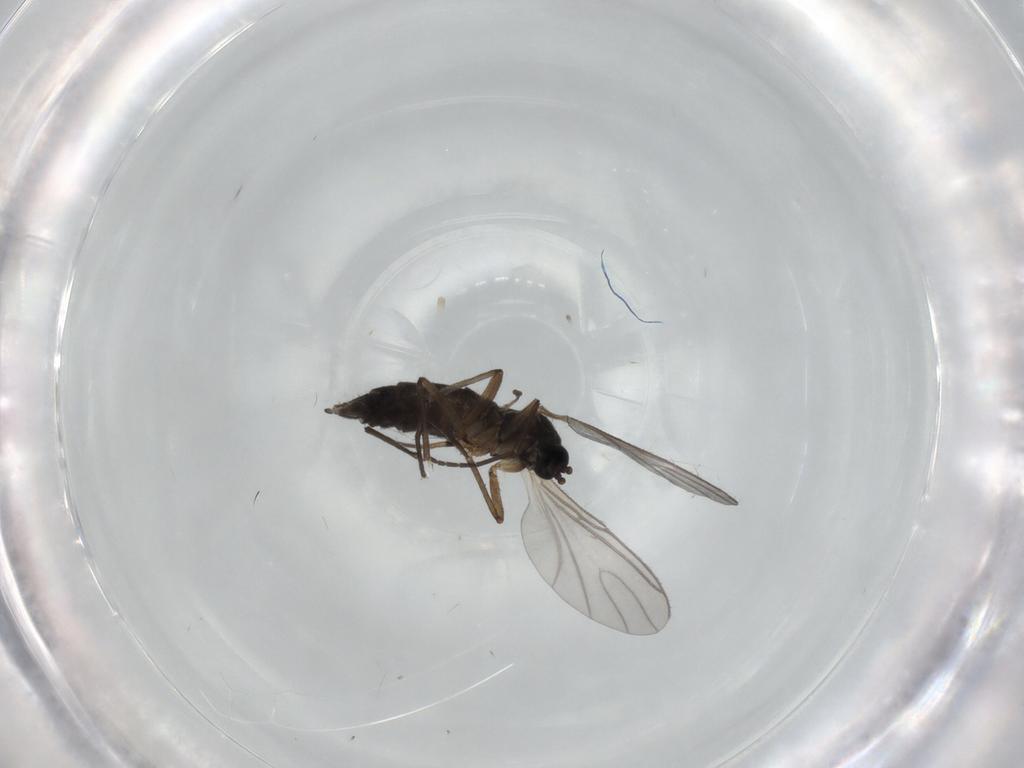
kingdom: Animalia
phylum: Arthropoda
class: Insecta
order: Diptera
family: Sciaridae
